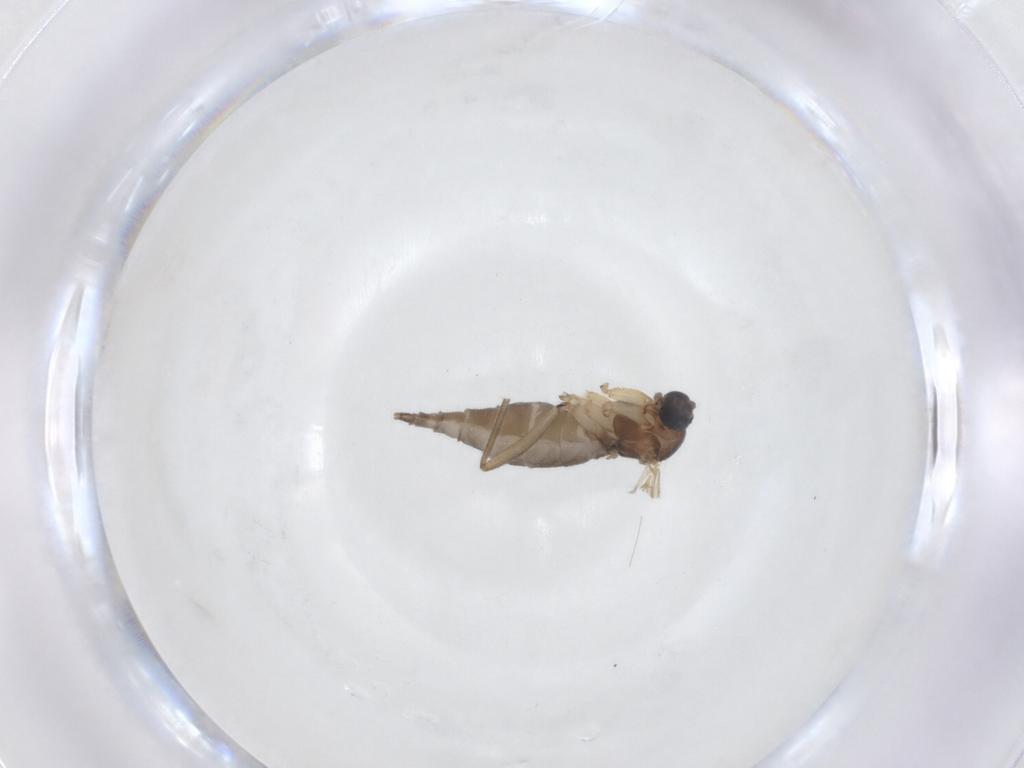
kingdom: Animalia
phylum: Arthropoda
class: Insecta
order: Diptera
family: Sciaridae
